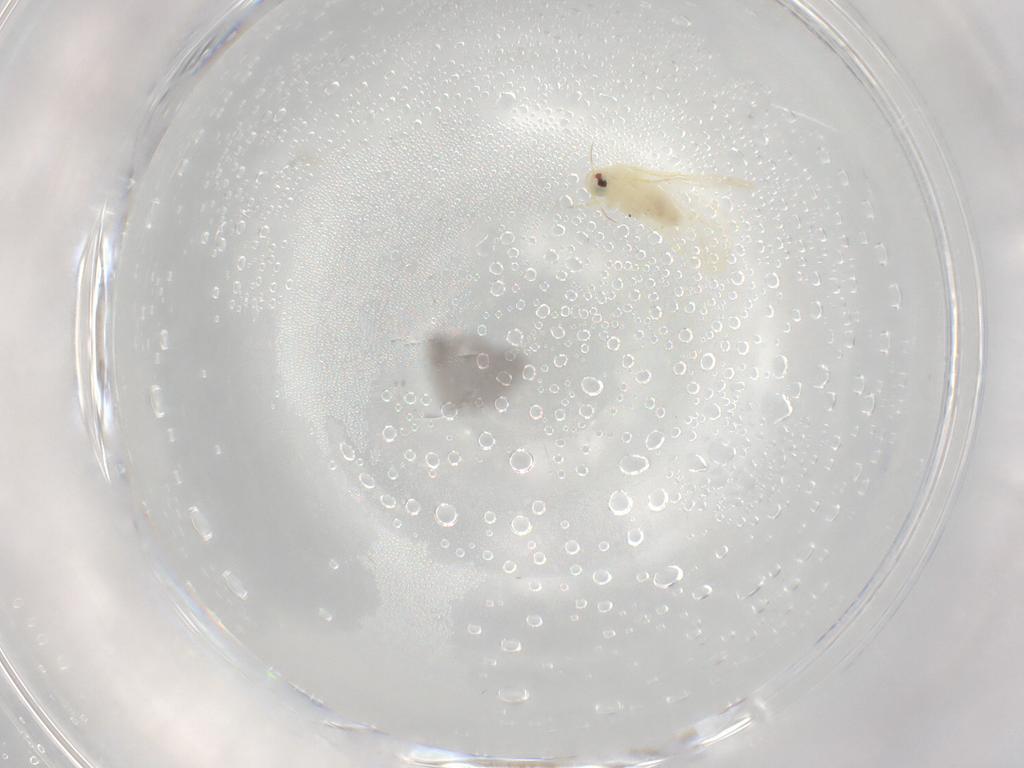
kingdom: Animalia
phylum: Arthropoda
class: Insecta
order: Hemiptera
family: Aleyrodidae
